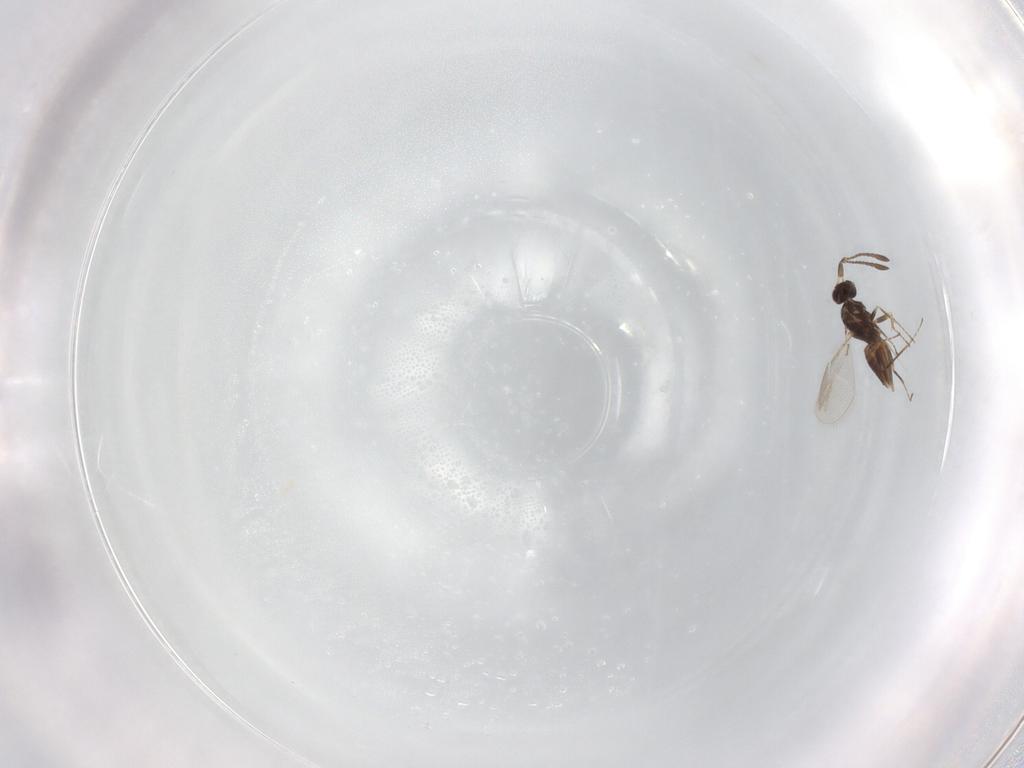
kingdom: Animalia
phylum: Arthropoda
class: Insecta
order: Hymenoptera
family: Mymaridae
